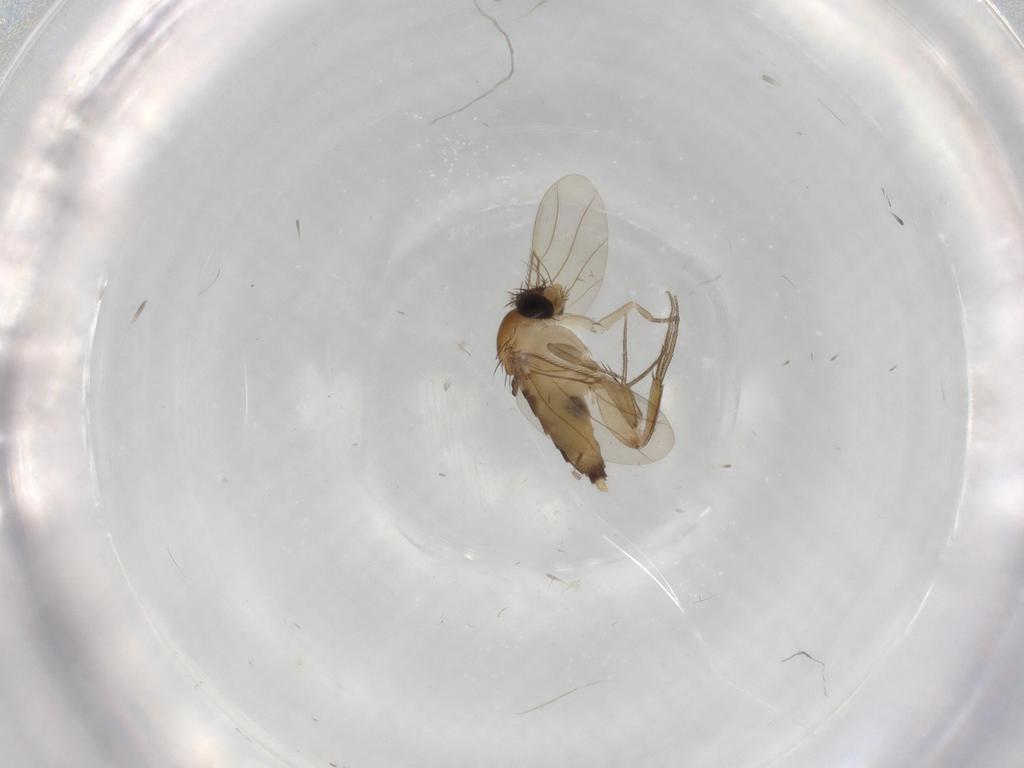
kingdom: Animalia
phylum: Arthropoda
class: Insecta
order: Diptera
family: Phoridae
